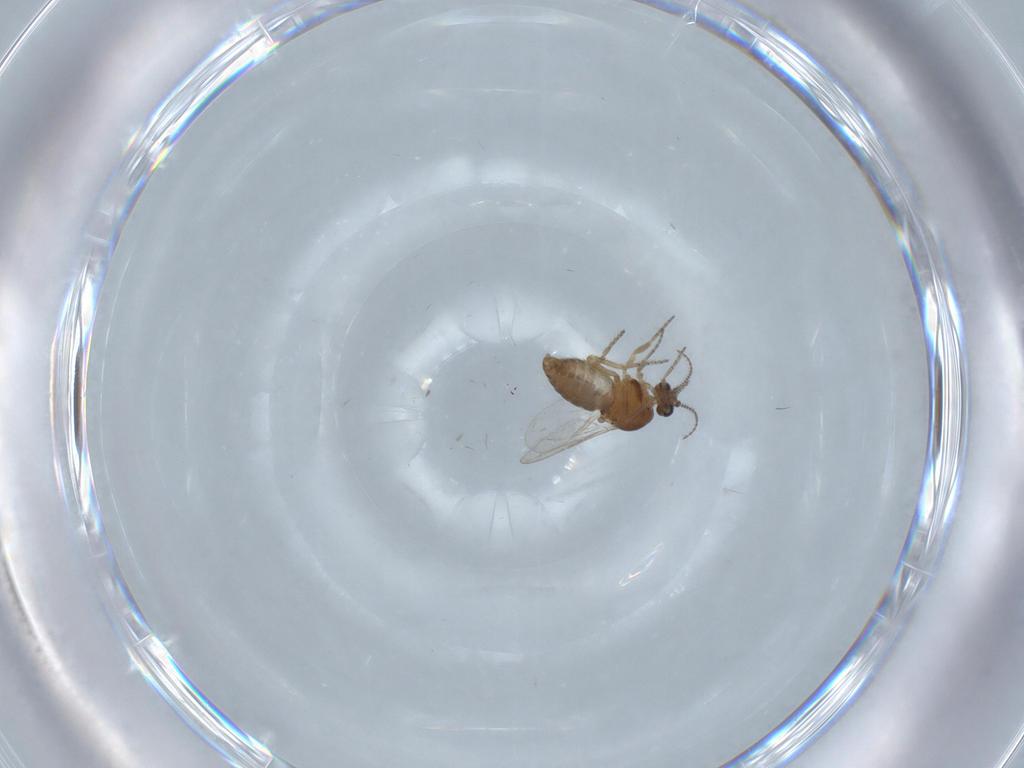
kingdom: Animalia
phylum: Arthropoda
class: Insecta
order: Diptera
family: Ceratopogonidae
